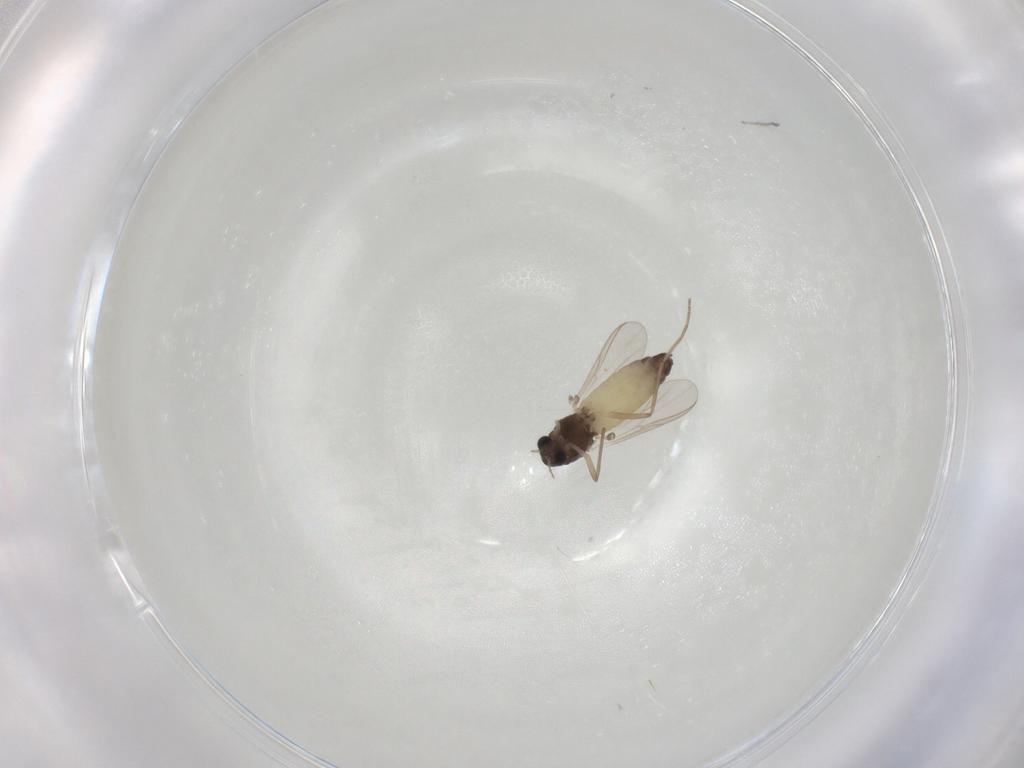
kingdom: Animalia
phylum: Arthropoda
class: Insecta
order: Diptera
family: Chironomidae
